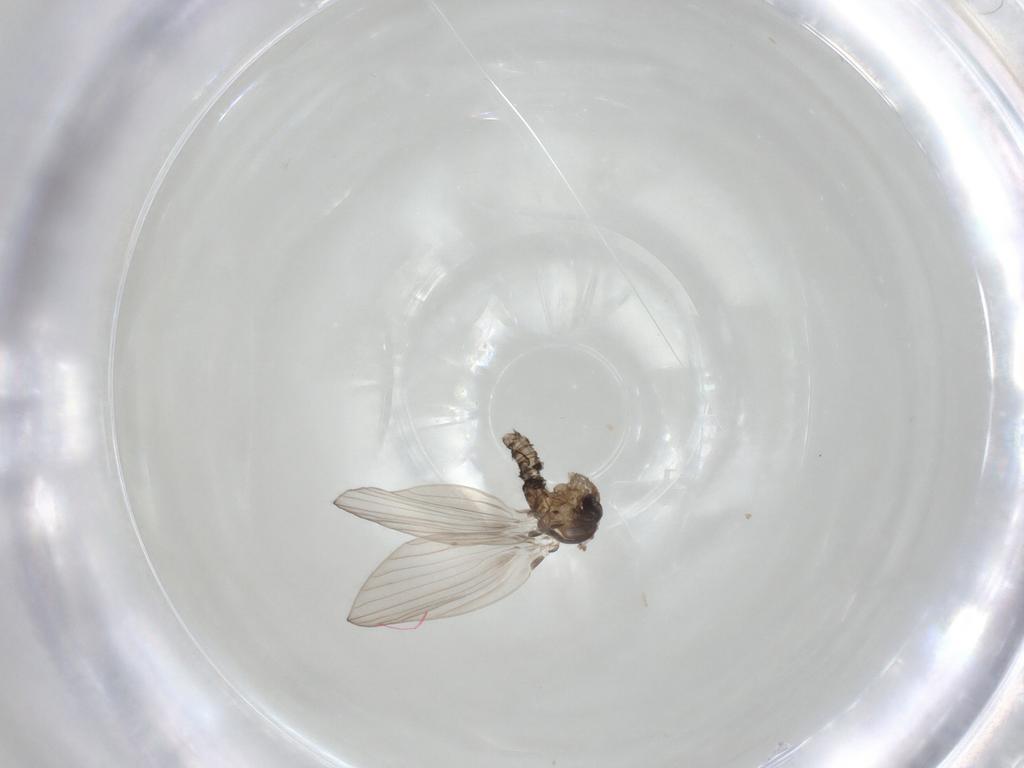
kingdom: Animalia
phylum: Arthropoda
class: Insecta
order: Diptera
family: Psychodidae
